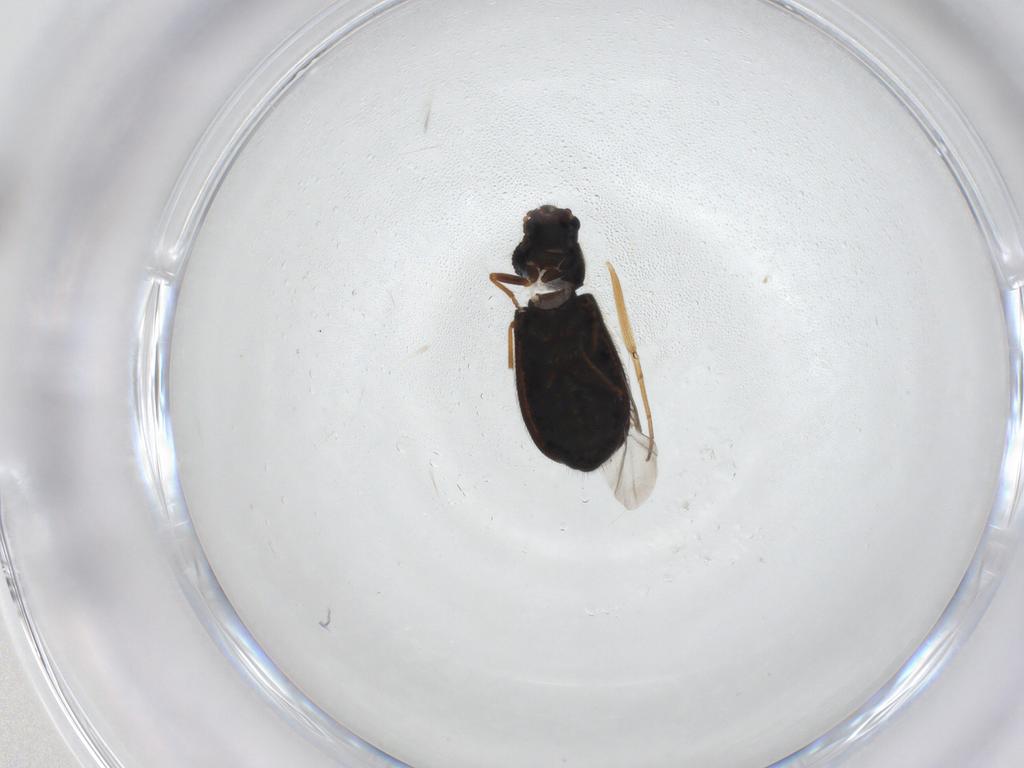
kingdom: Animalia
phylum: Arthropoda
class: Insecta
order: Coleoptera
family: Melyridae
